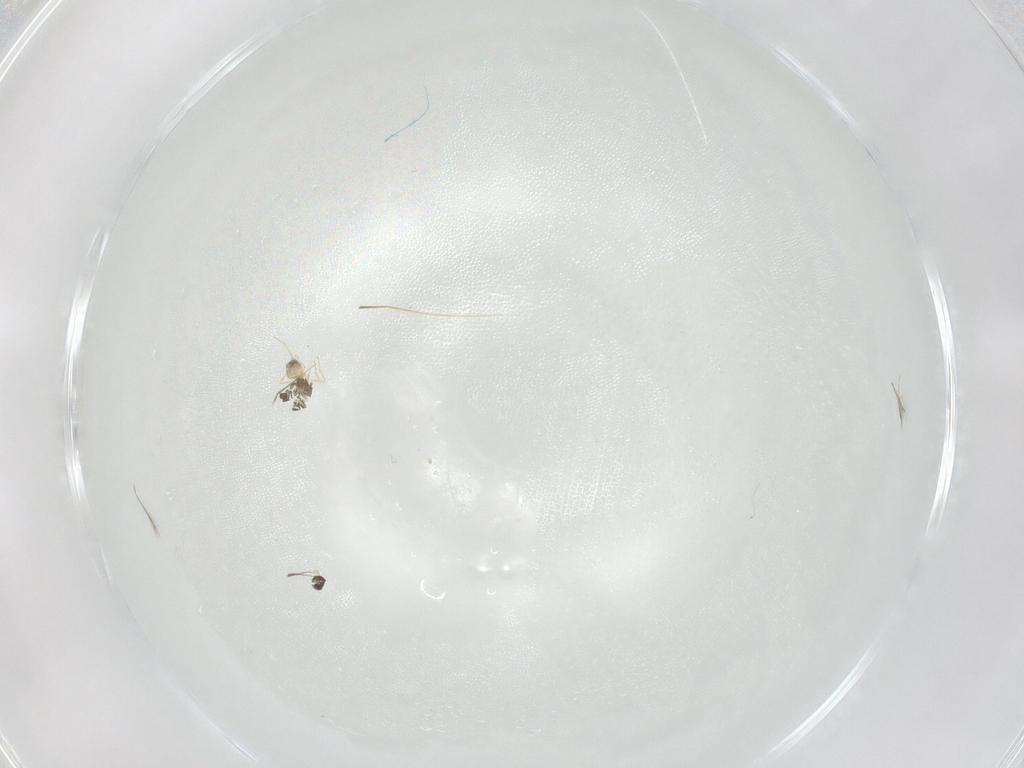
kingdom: Animalia
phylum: Arthropoda
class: Insecta
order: Hymenoptera
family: Mymaridae
